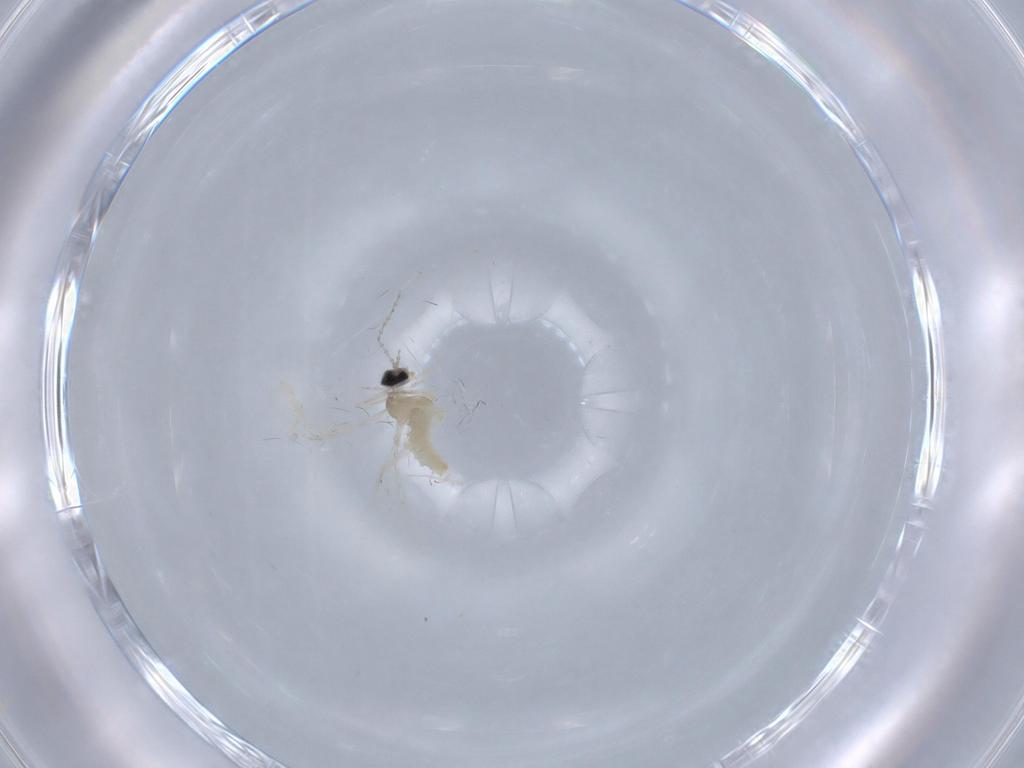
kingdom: Animalia
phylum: Arthropoda
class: Insecta
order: Diptera
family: Cecidomyiidae
